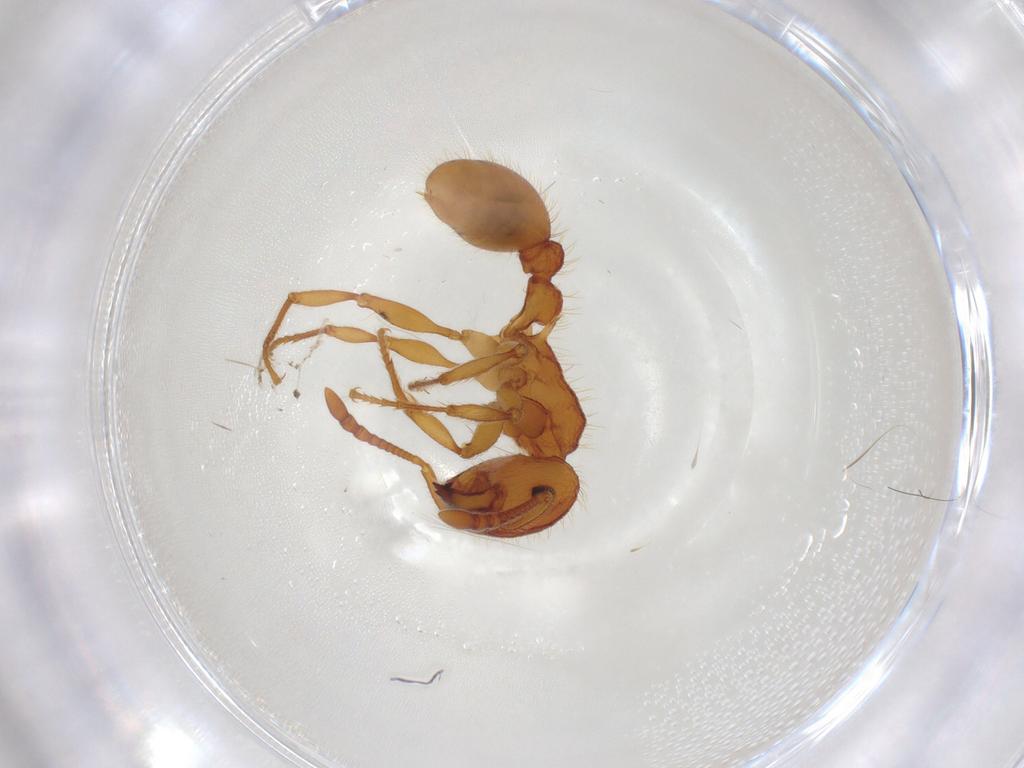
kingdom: Animalia
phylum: Arthropoda
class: Insecta
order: Hymenoptera
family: Formicidae
